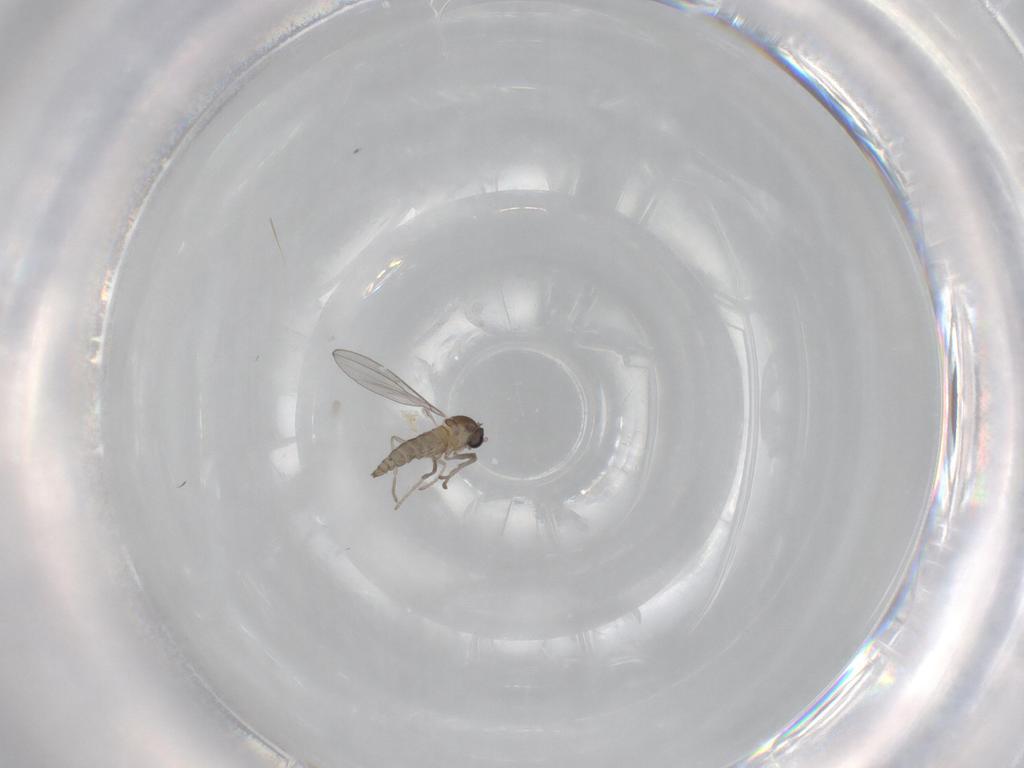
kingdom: Animalia
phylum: Arthropoda
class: Insecta
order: Diptera
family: Cecidomyiidae
